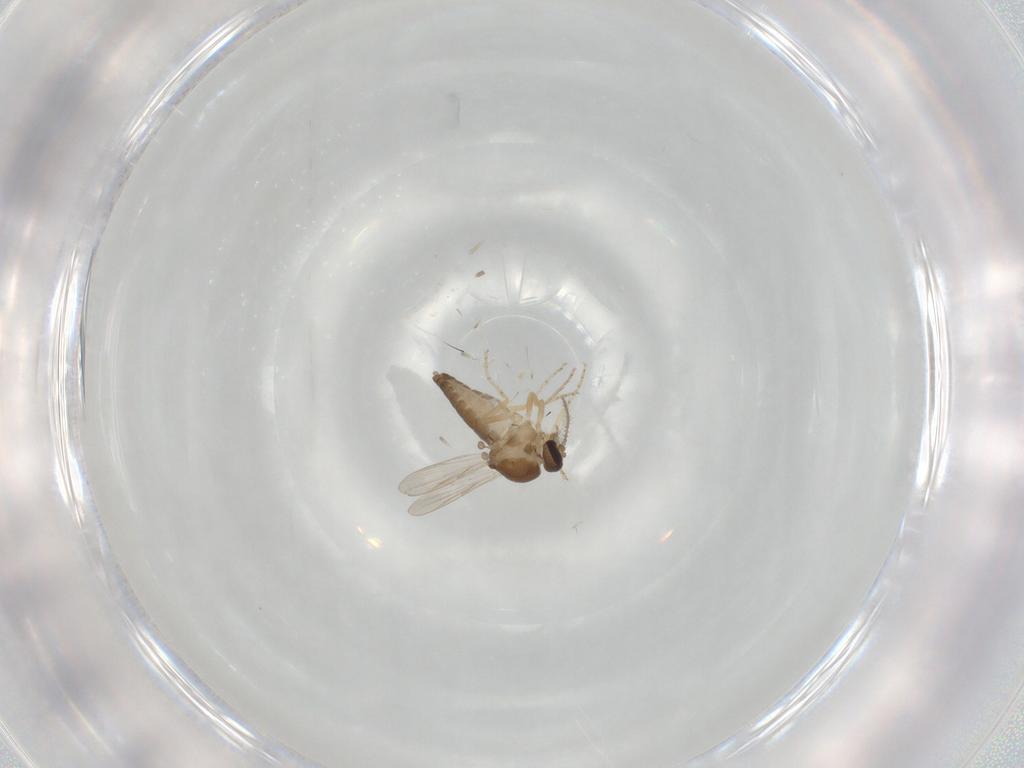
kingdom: Animalia
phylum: Arthropoda
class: Insecta
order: Diptera
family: Ceratopogonidae
